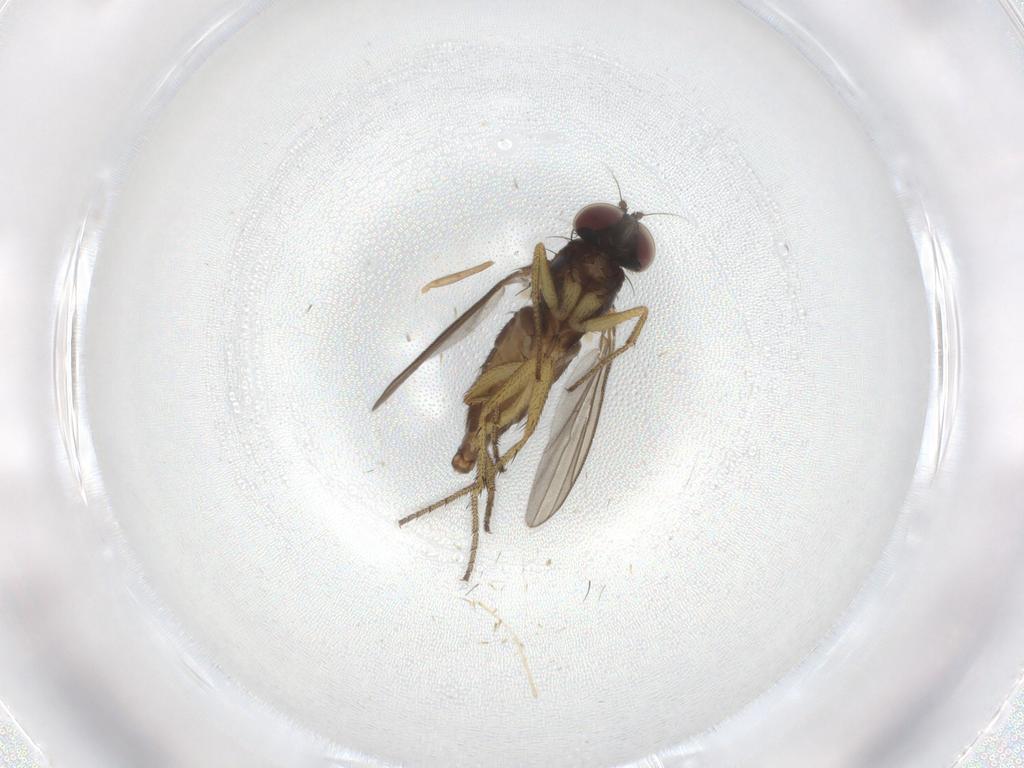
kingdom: Animalia
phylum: Arthropoda
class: Insecta
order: Diptera
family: Dolichopodidae
